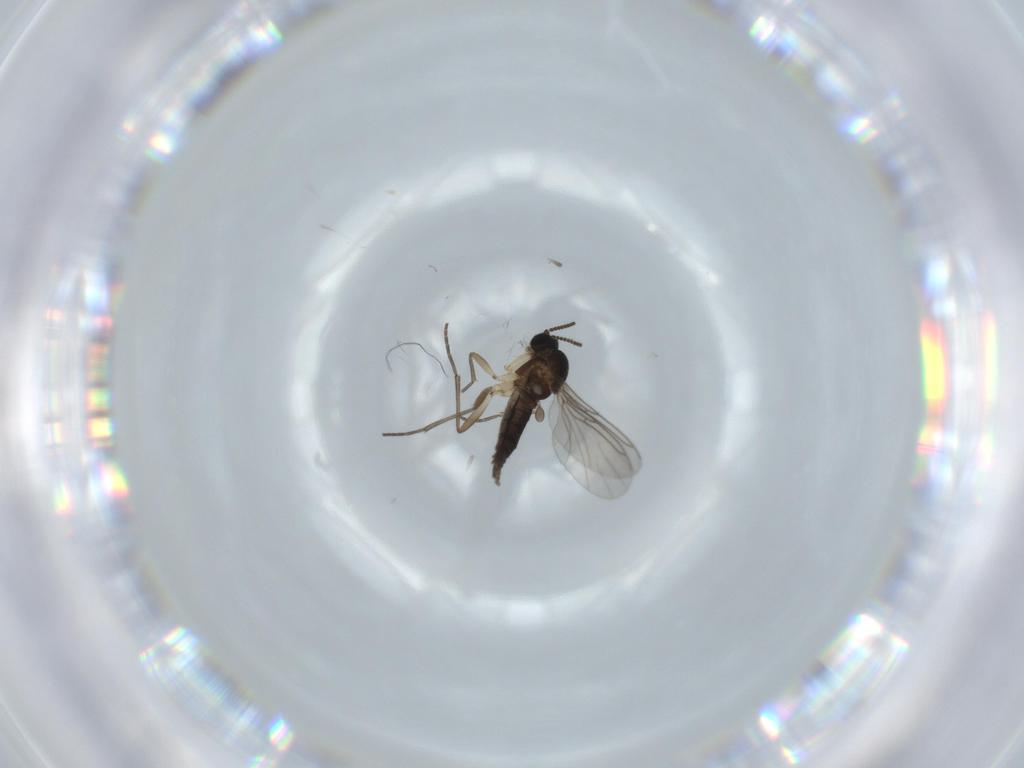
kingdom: Animalia
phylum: Arthropoda
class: Insecta
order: Diptera
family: Sciaridae
